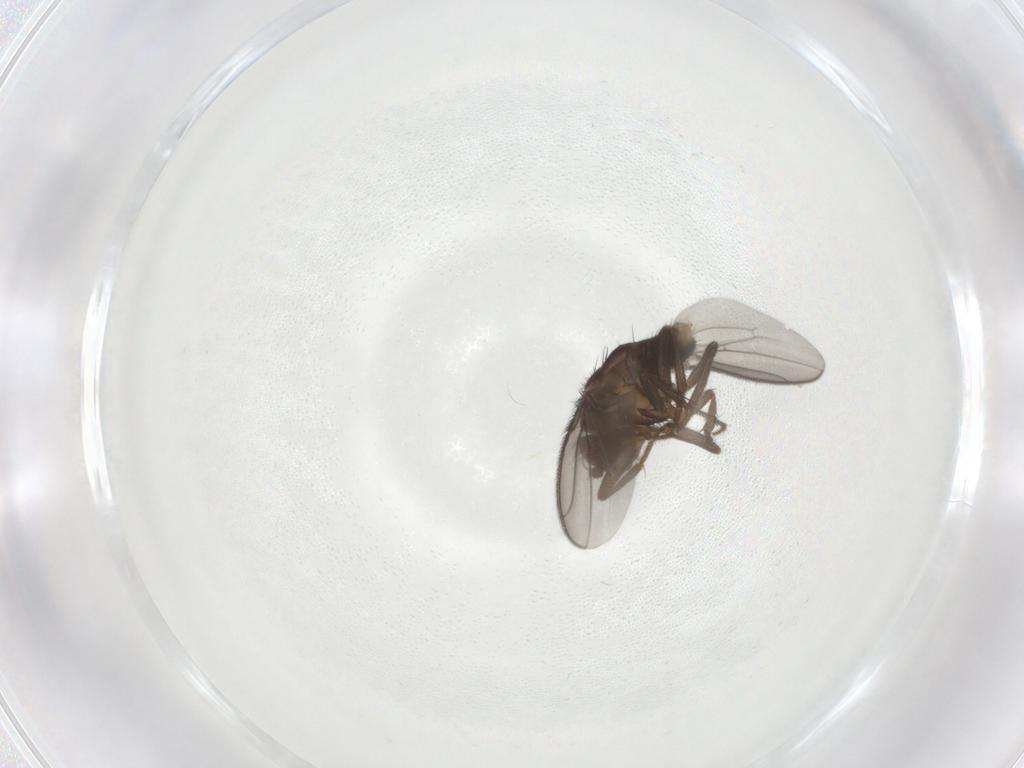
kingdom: Animalia
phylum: Arthropoda
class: Insecta
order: Diptera
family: Sphaeroceridae
